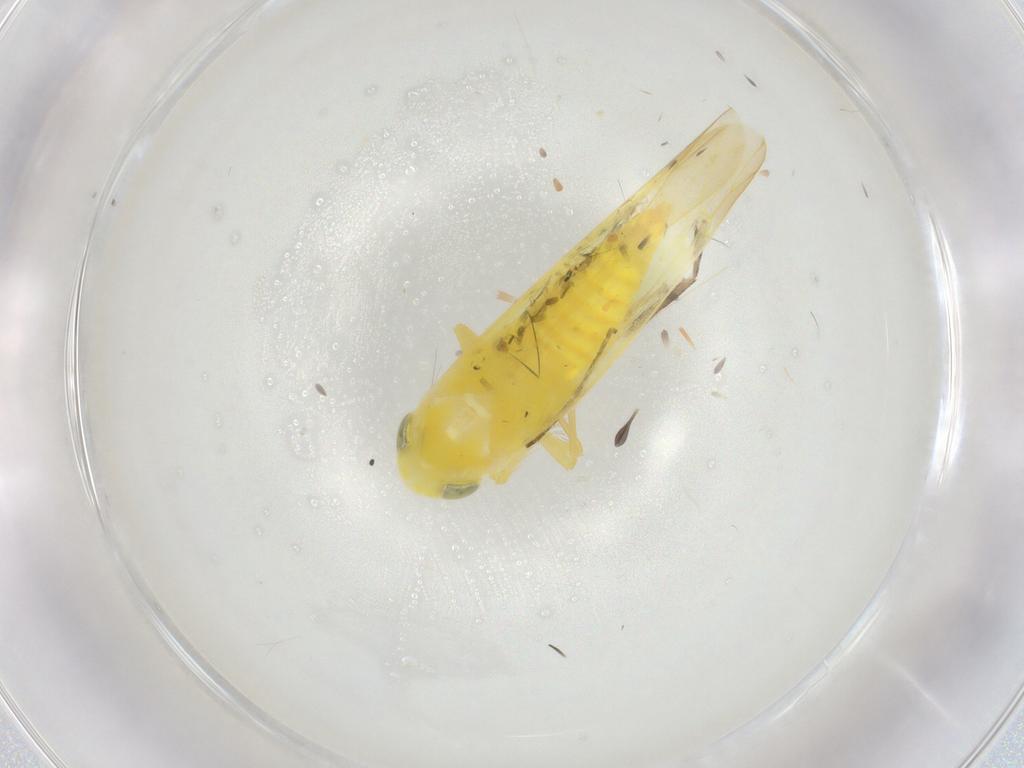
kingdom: Animalia
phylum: Arthropoda
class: Insecta
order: Hemiptera
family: Cicadellidae
